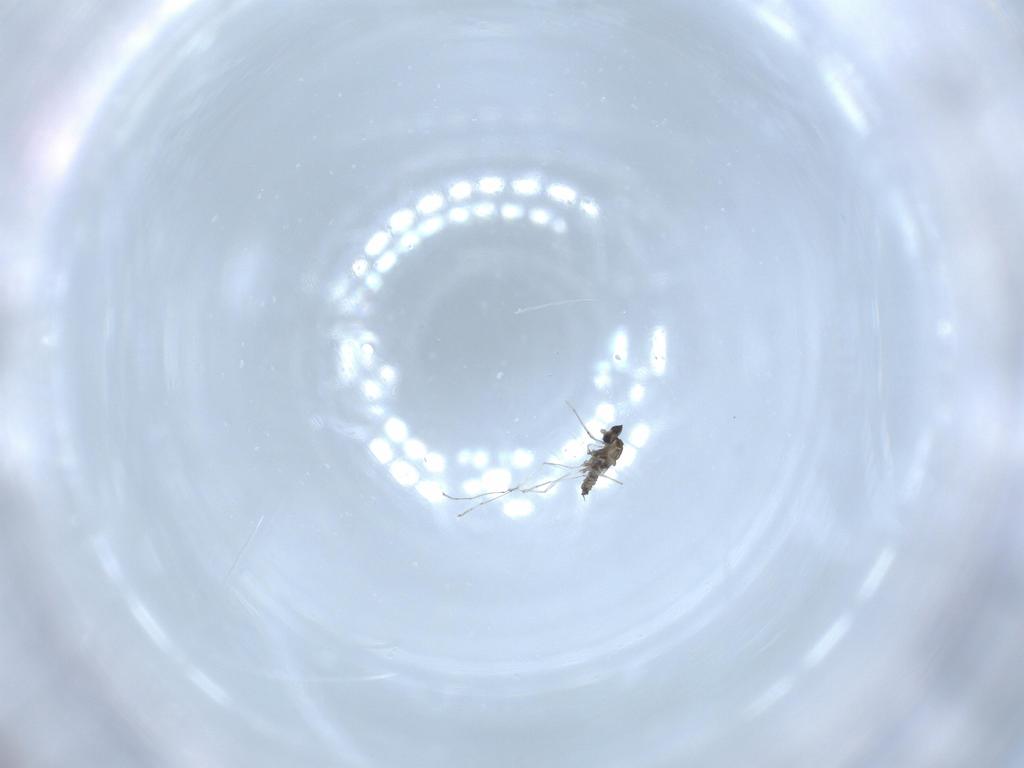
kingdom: Animalia
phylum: Arthropoda
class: Insecta
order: Diptera
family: Cecidomyiidae
